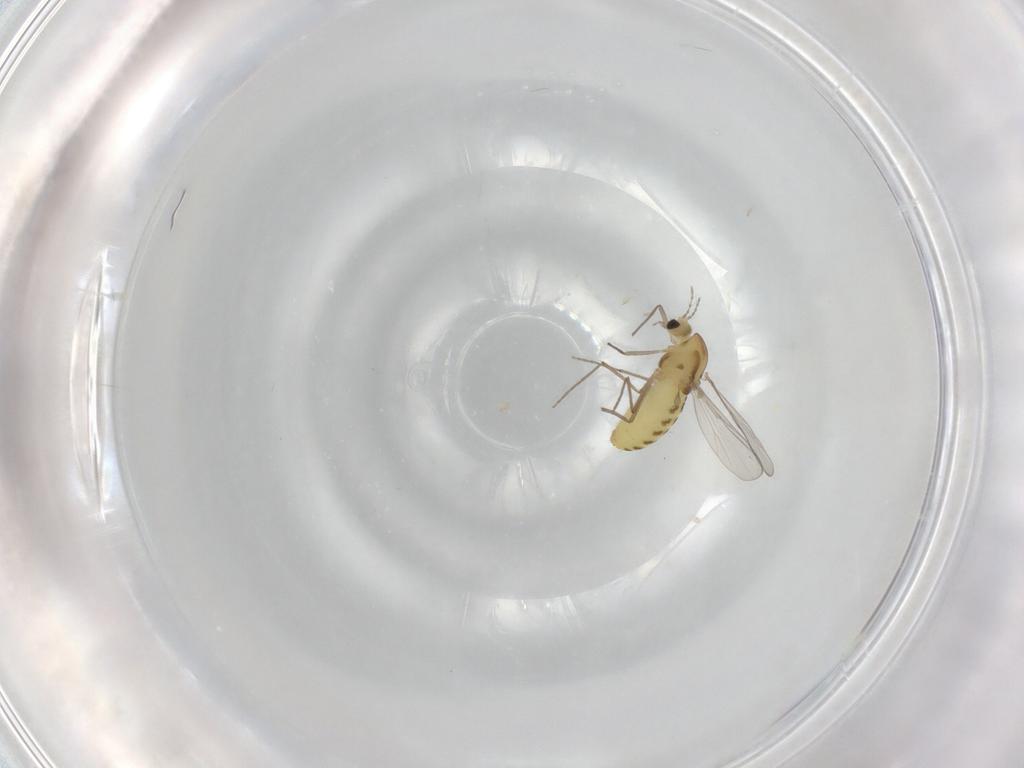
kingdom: Animalia
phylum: Arthropoda
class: Insecta
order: Diptera
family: Chironomidae
